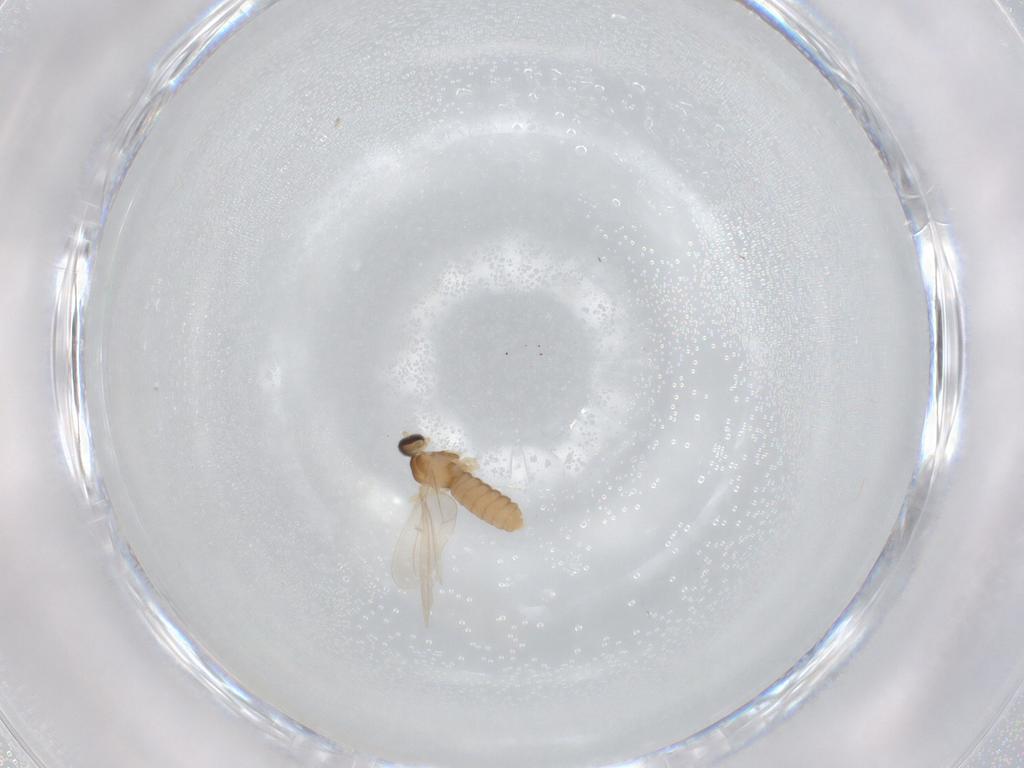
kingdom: Animalia
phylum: Arthropoda
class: Insecta
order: Diptera
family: Cecidomyiidae
